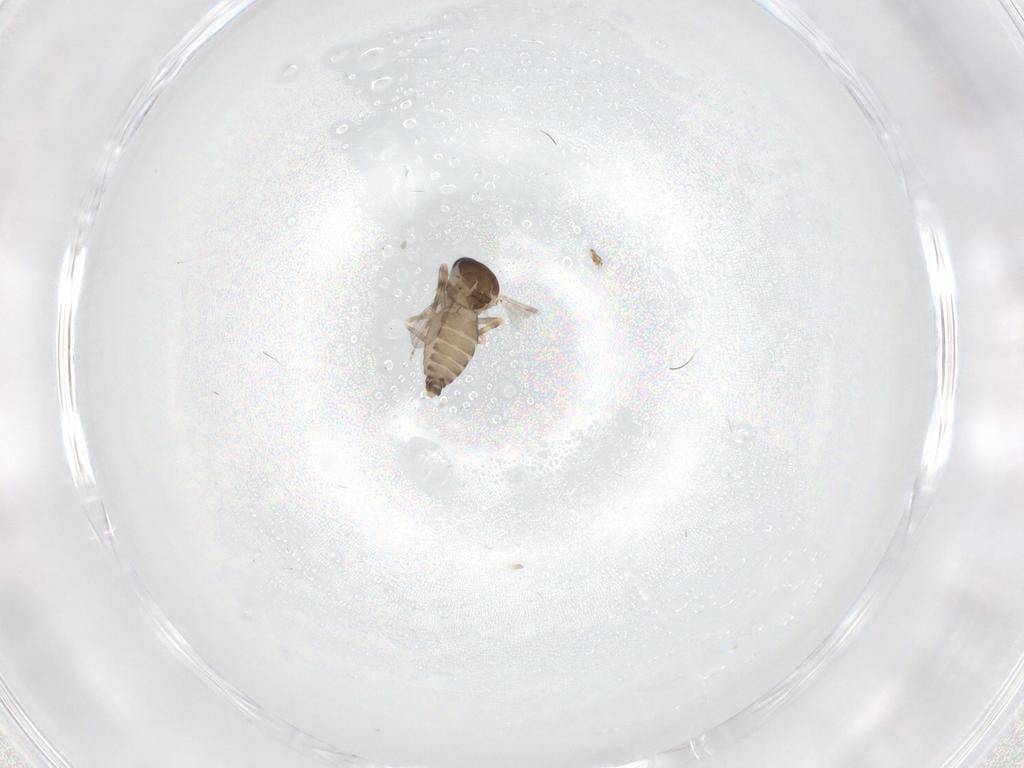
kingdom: Animalia
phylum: Arthropoda
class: Insecta
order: Diptera
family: Ceratopogonidae
